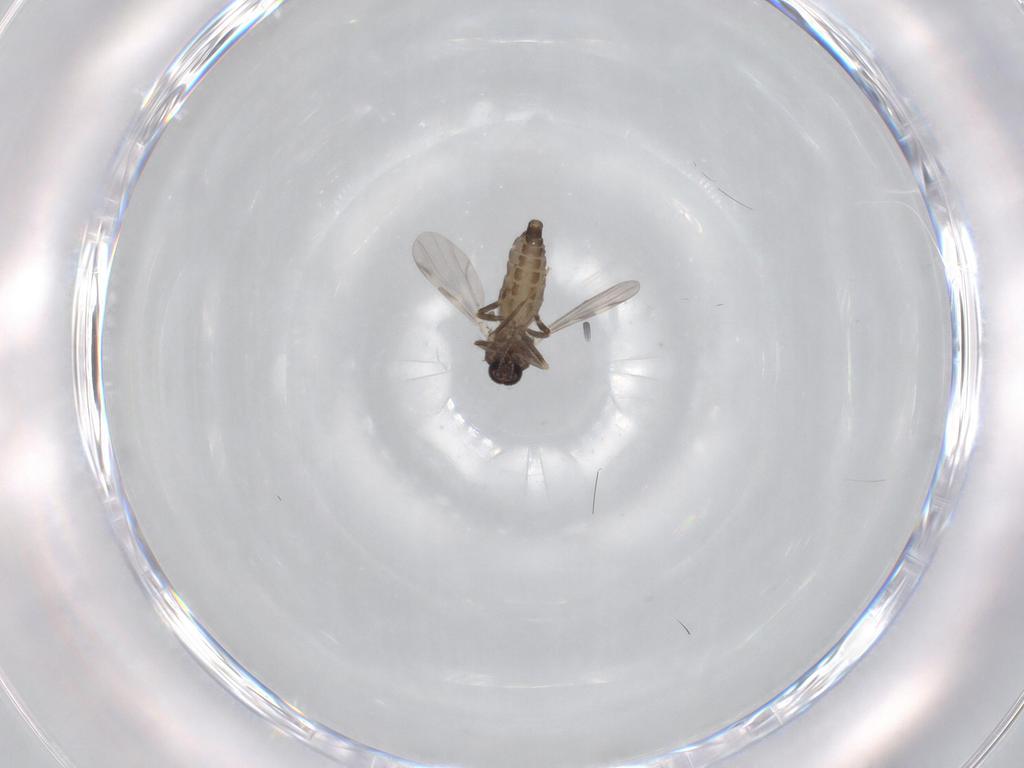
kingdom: Animalia
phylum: Arthropoda
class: Insecta
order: Diptera
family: Ceratopogonidae
